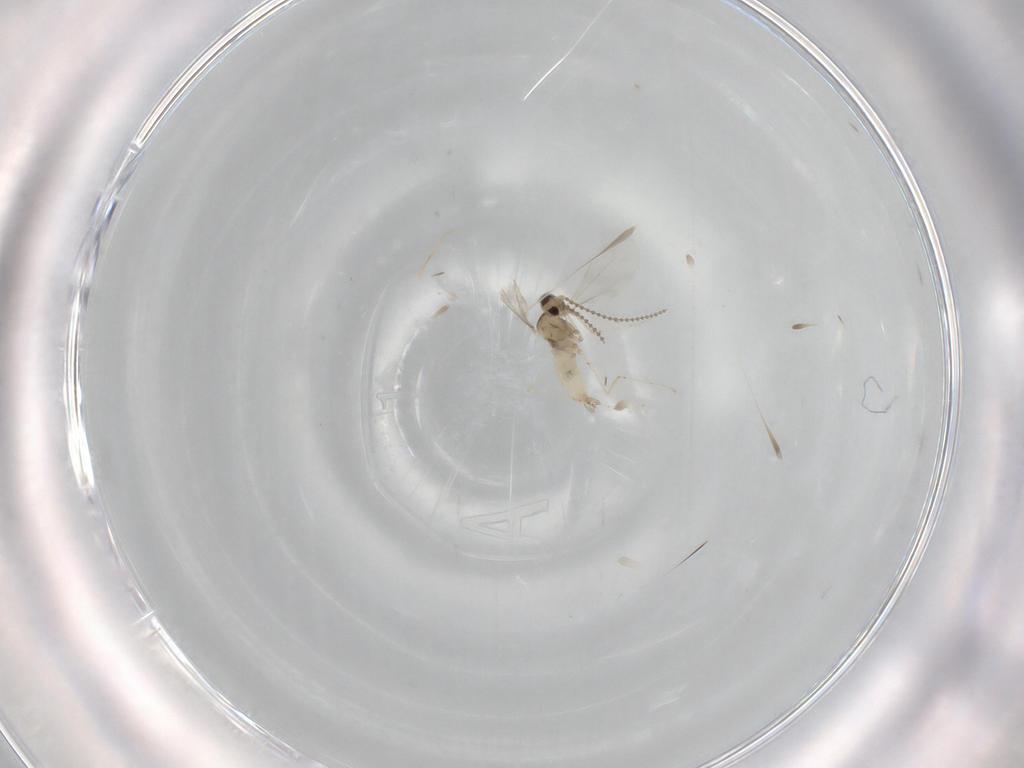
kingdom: Animalia
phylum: Arthropoda
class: Insecta
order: Diptera
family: Cecidomyiidae
